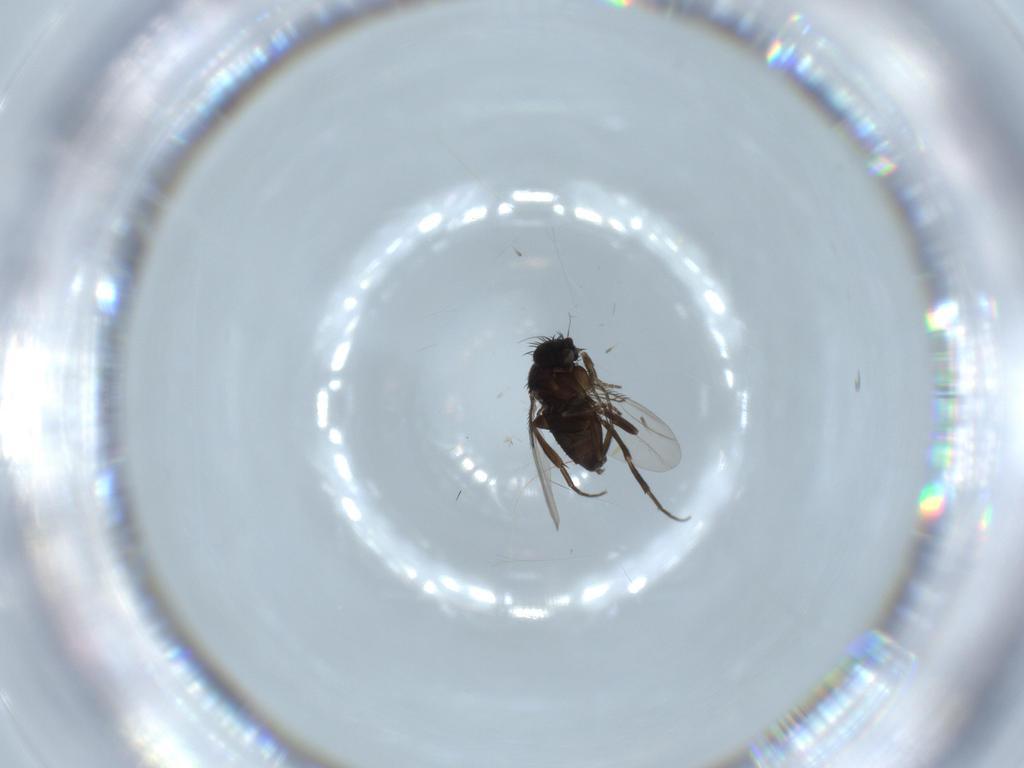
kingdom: Animalia
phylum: Arthropoda
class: Insecta
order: Diptera
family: Phoridae
